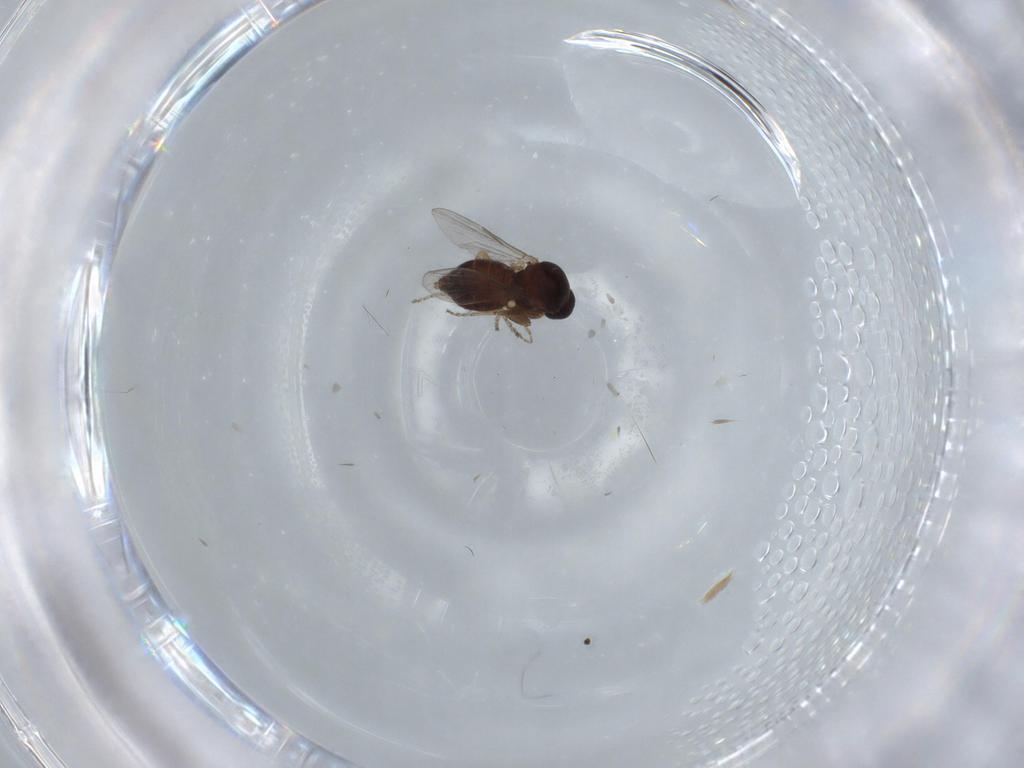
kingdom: Animalia
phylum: Arthropoda
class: Insecta
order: Diptera
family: Ceratopogonidae
